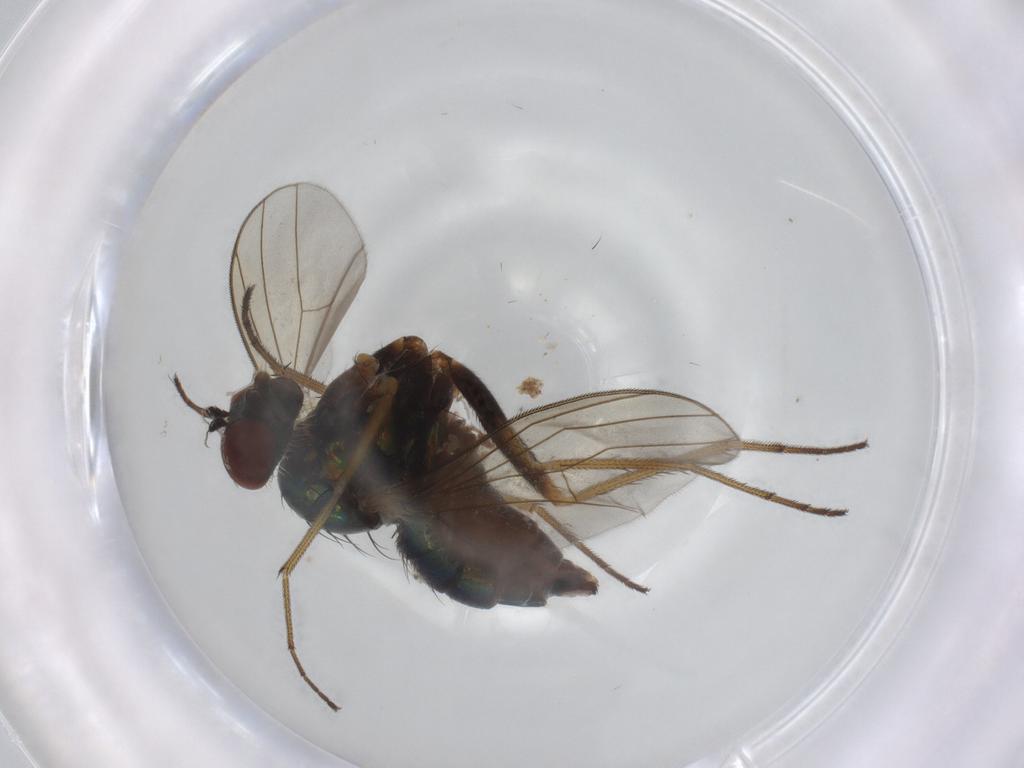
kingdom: Animalia
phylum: Arthropoda
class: Insecta
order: Diptera
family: Dolichopodidae
